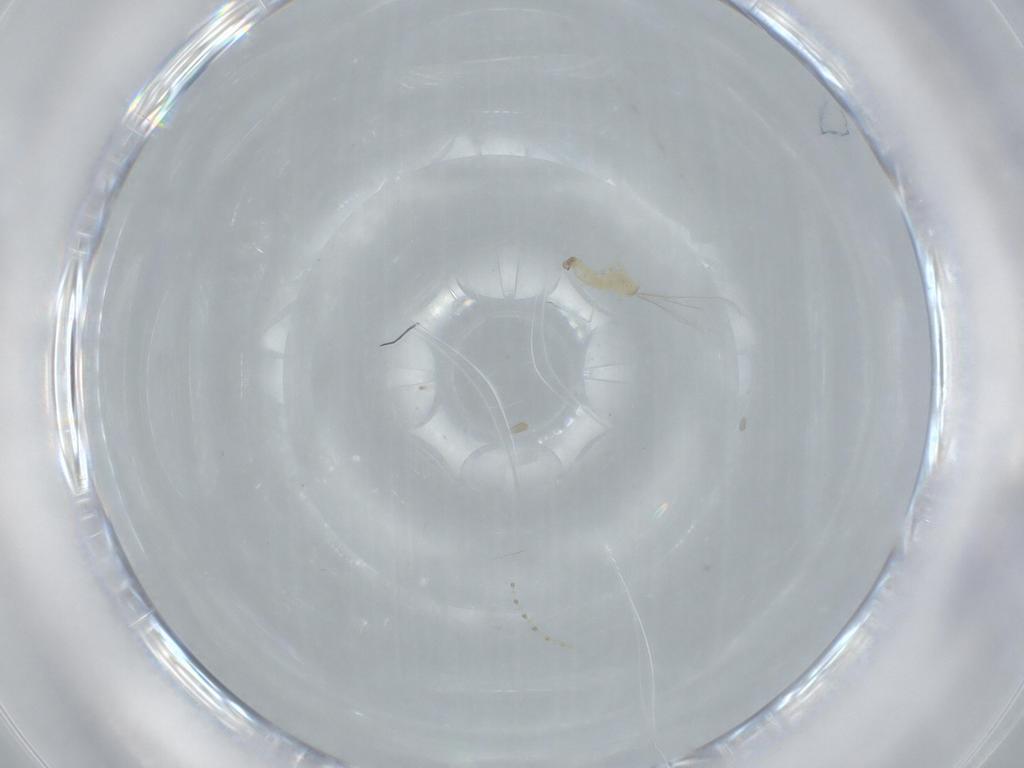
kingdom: Animalia
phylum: Arthropoda
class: Insecta
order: Diptera
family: Cecidomyiidae
